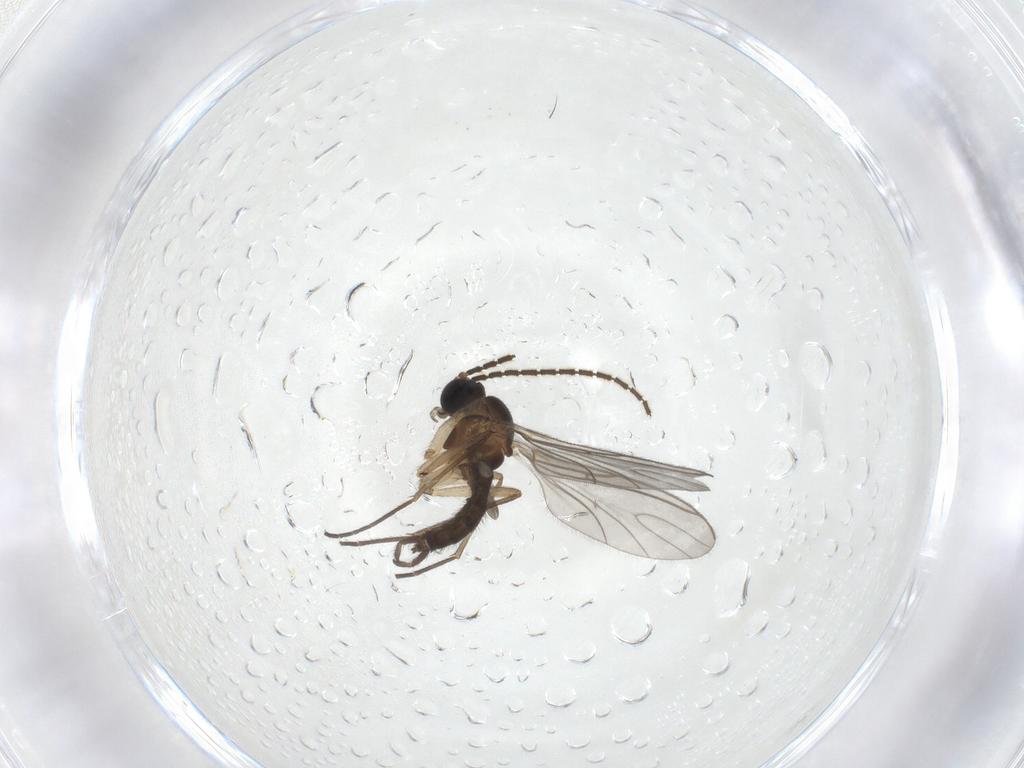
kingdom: Animalia
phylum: Arthropoda
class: Insecta
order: Diptera
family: Sciaridae
